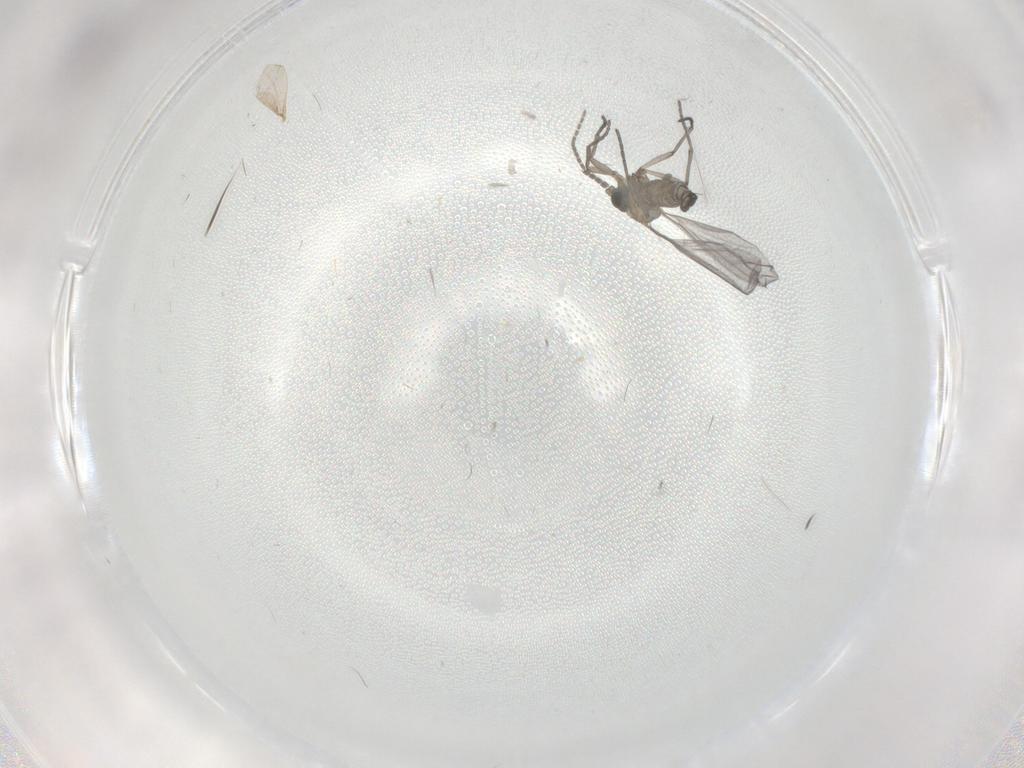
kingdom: Animalia
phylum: Arthropoda
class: Insecta
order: Diptera
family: Sciaridae
